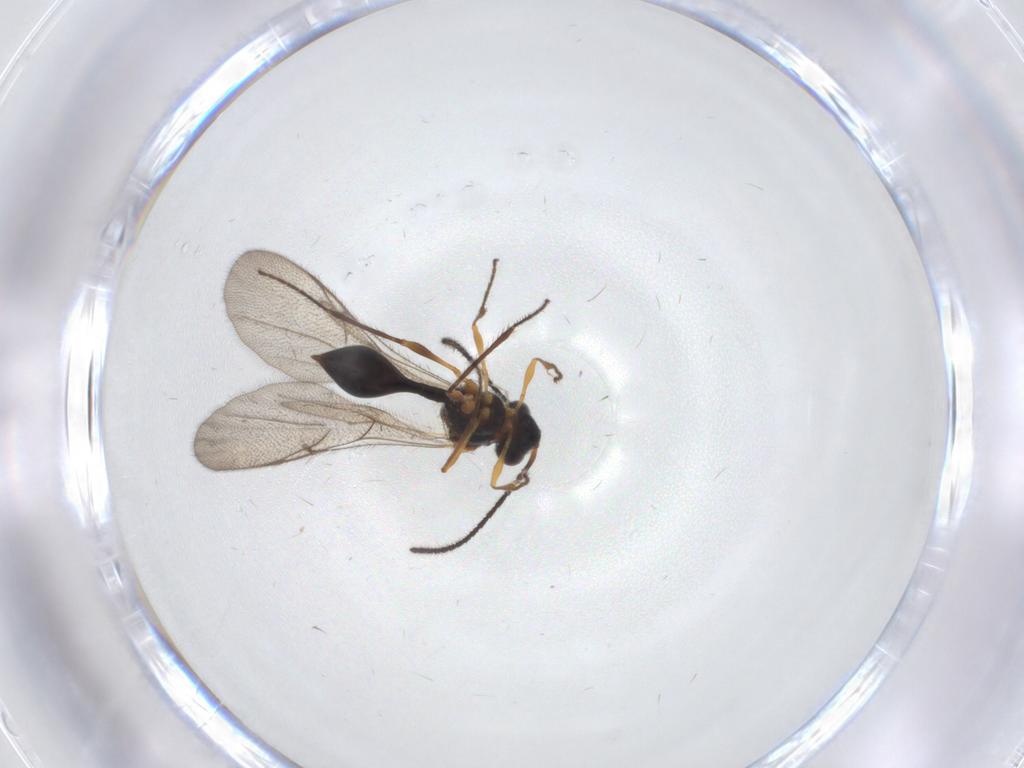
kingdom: Animalia
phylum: Arthropoda
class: Insecta
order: Hymenoptera
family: Diapriidae
